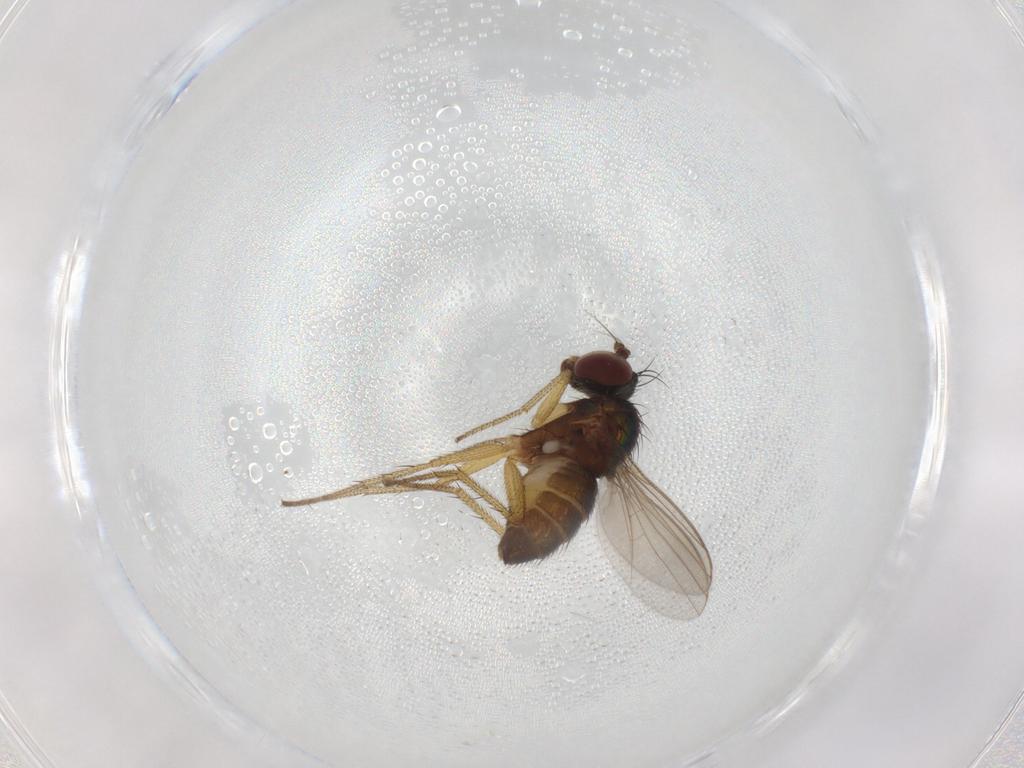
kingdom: Animalia
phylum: Arthropoda
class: Insecta
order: Diptera
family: Dolichopodidae
